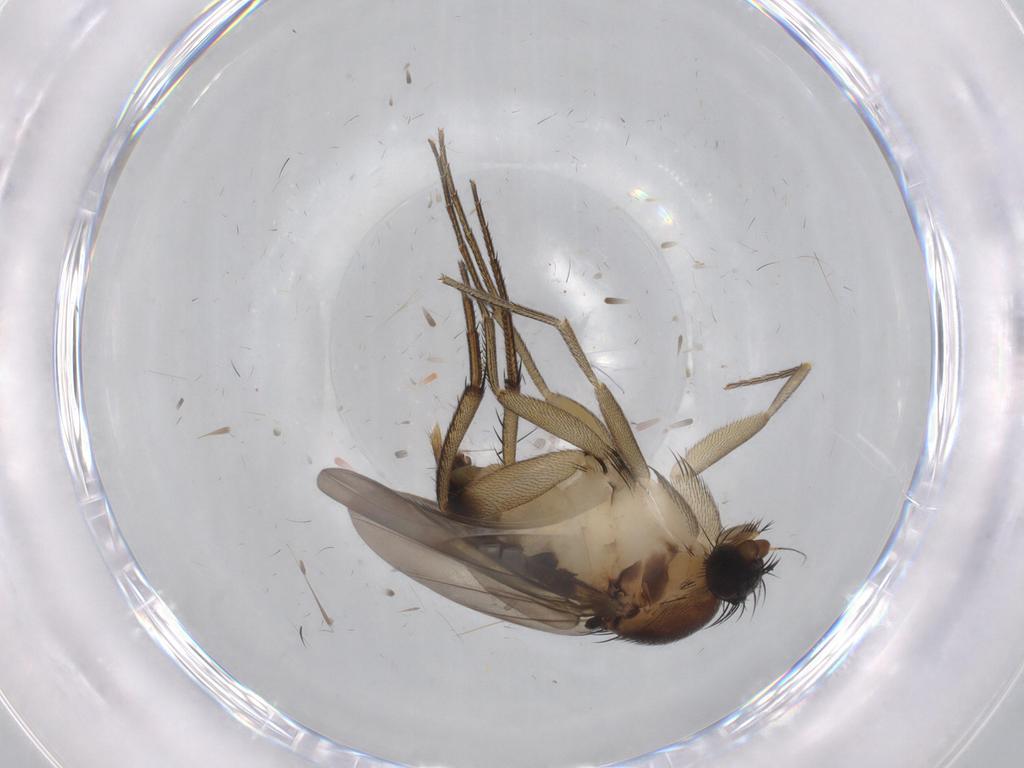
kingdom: Animalia
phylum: Arthropoda
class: Insecta
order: Diptera
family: Phoridae
